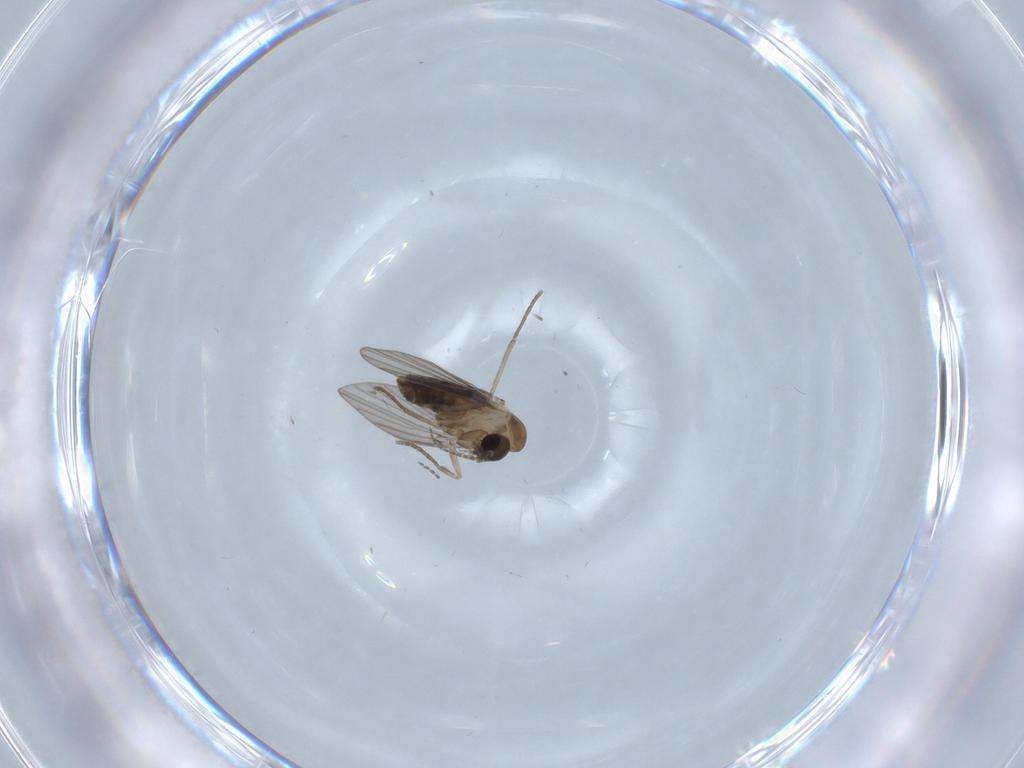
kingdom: Animalia
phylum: Arthropoda
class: Insecta
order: Diptera
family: Psychodidae
